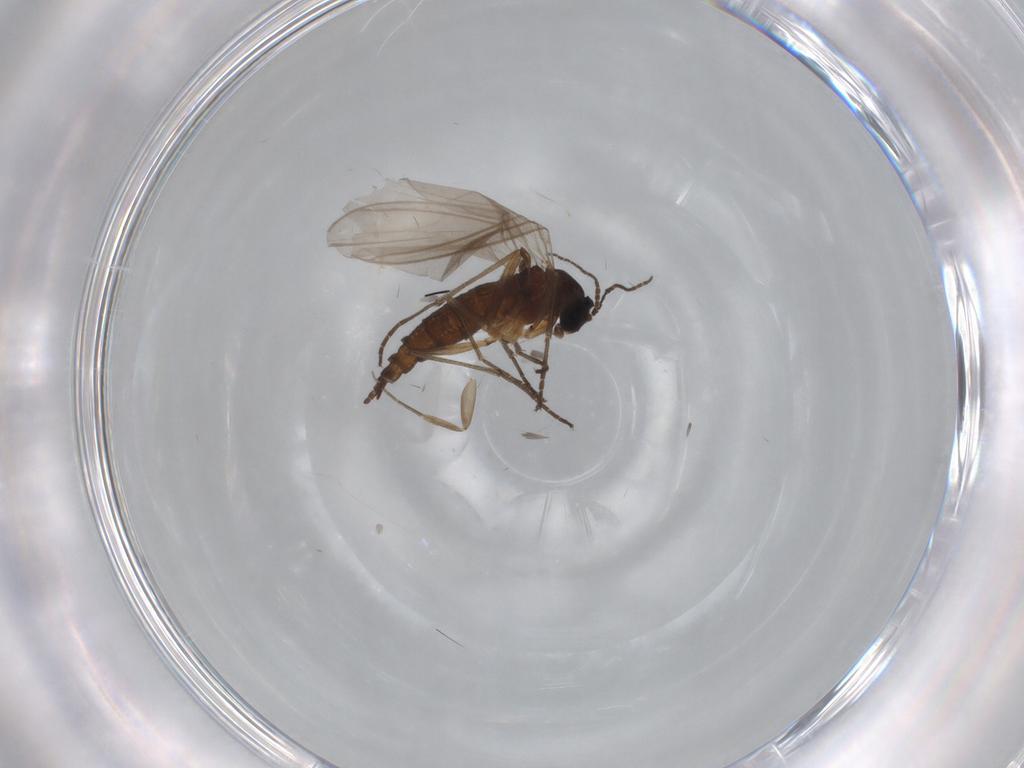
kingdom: Animalia
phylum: Arthropoda
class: Insecta
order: Diptera
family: Sciaridae
